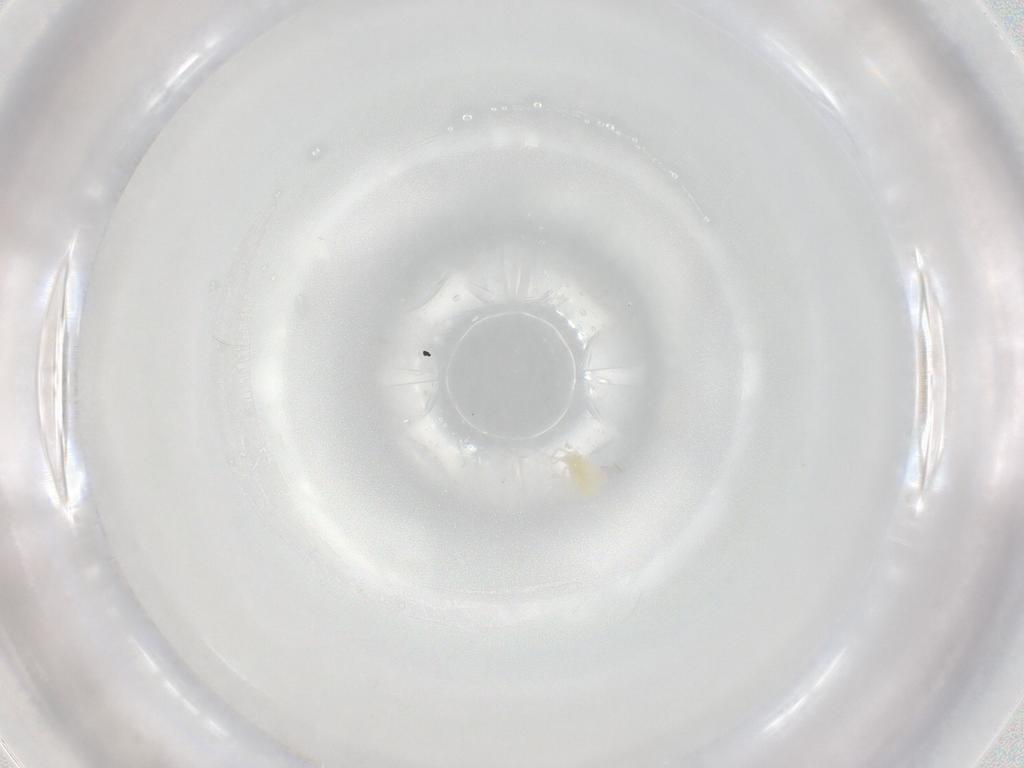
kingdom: Animalia
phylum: Arthropoda
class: Arachnida
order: Trombidiformes
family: Eupodidae
